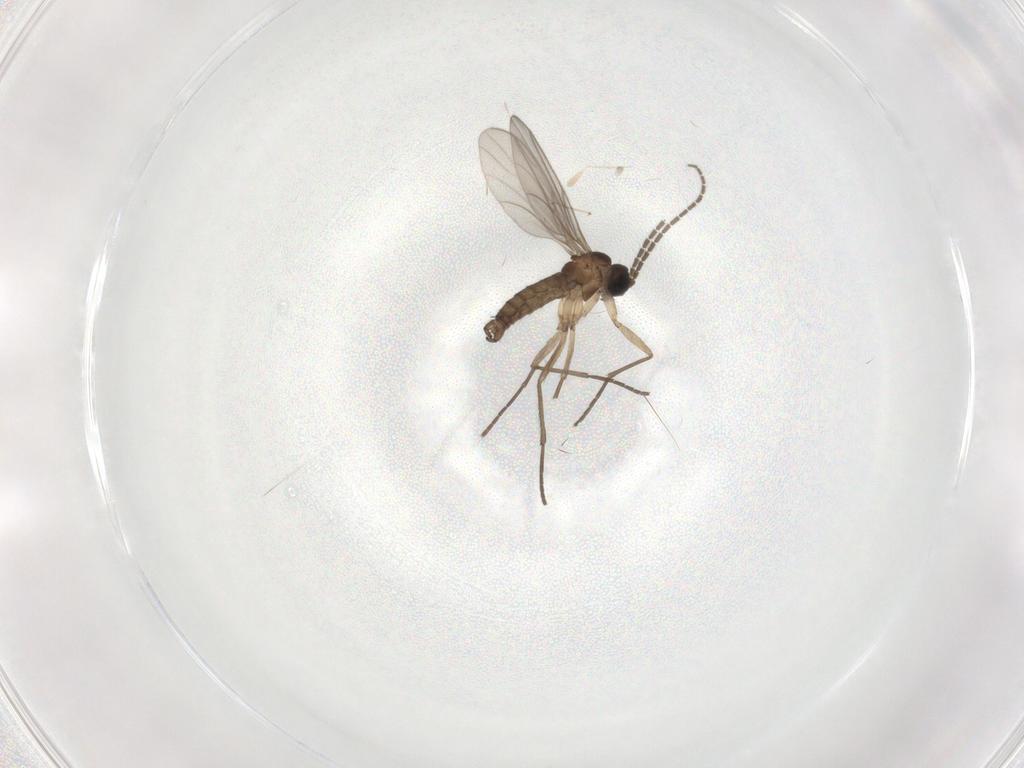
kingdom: Animalia
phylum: Arthropoda
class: Insecta
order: Diptera
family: Sciaridae
